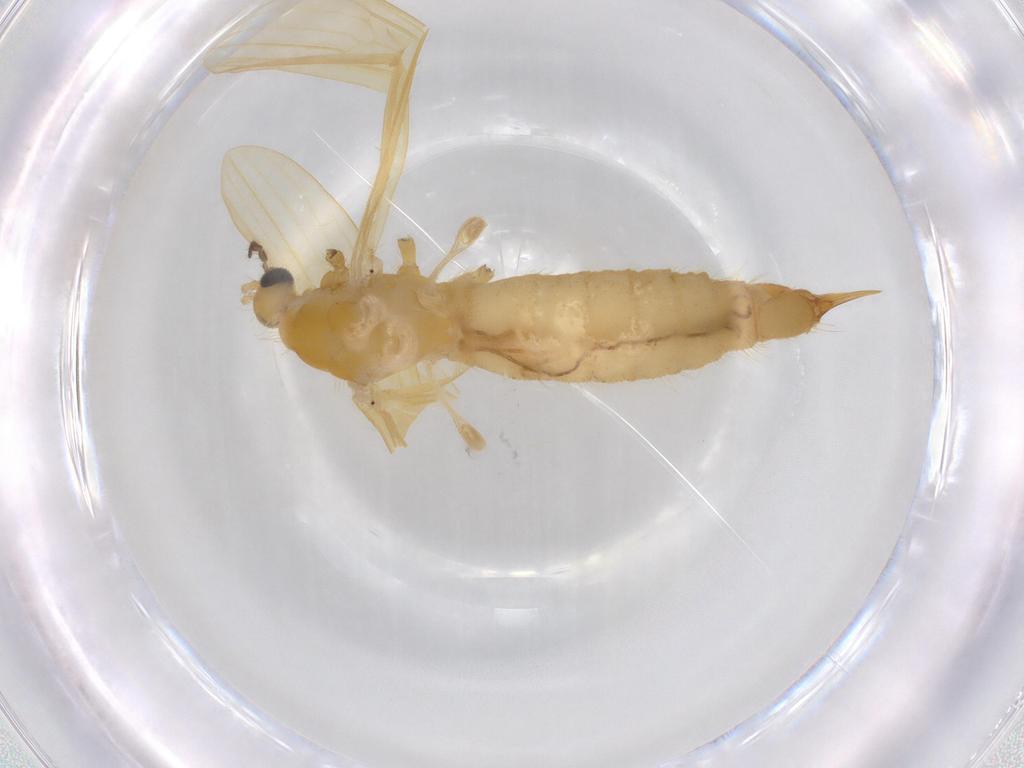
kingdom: Animalia
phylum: Arthropoda
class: Insecta
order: Diptera
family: Limoniidae
